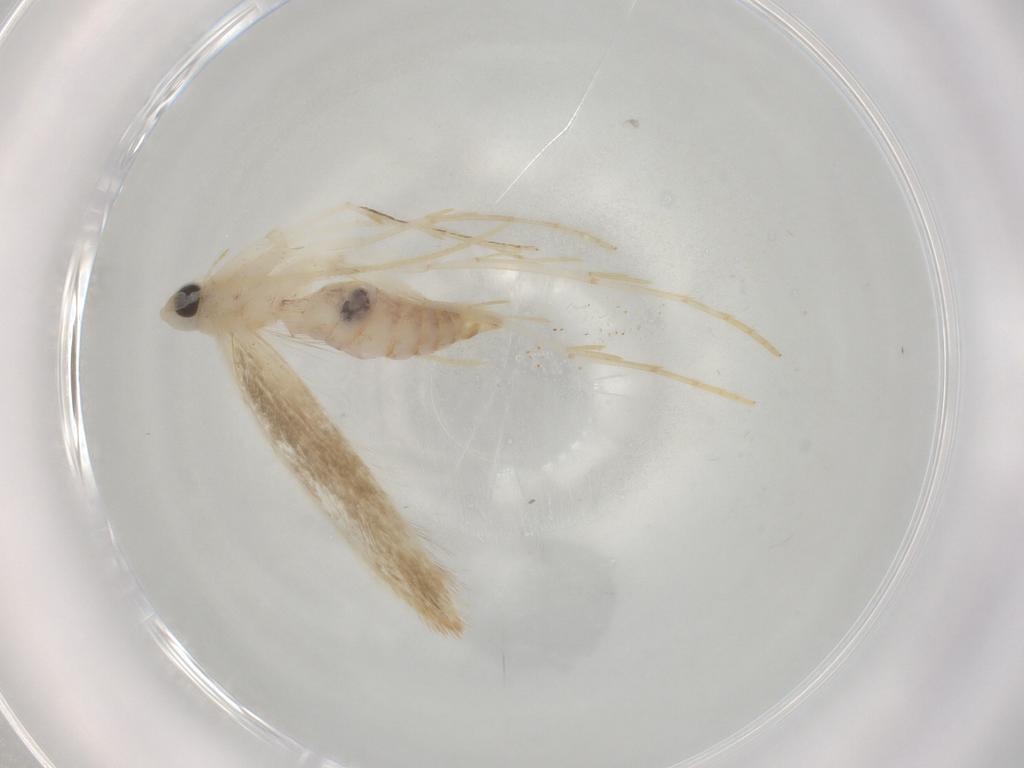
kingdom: Animalia
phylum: Arthropoda
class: Insecta
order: Lepidoptera
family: Lyonetiidae
